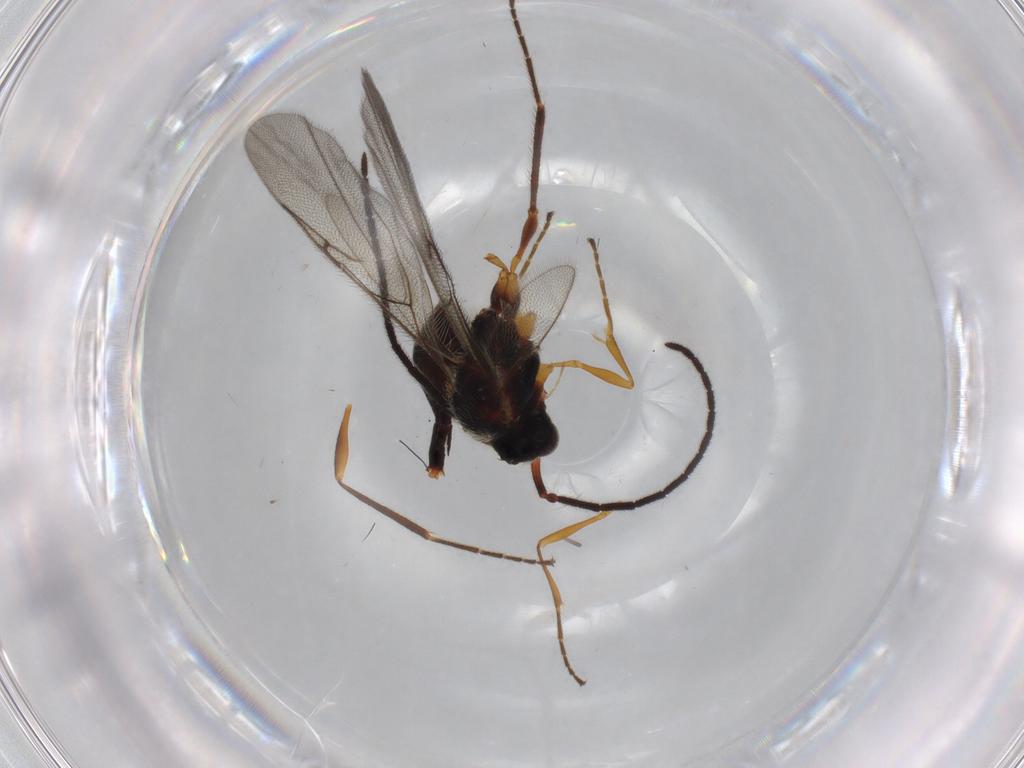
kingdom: Animalia
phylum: Arthropoda
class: Insecta
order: Hymenoptera
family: Diapriidae
